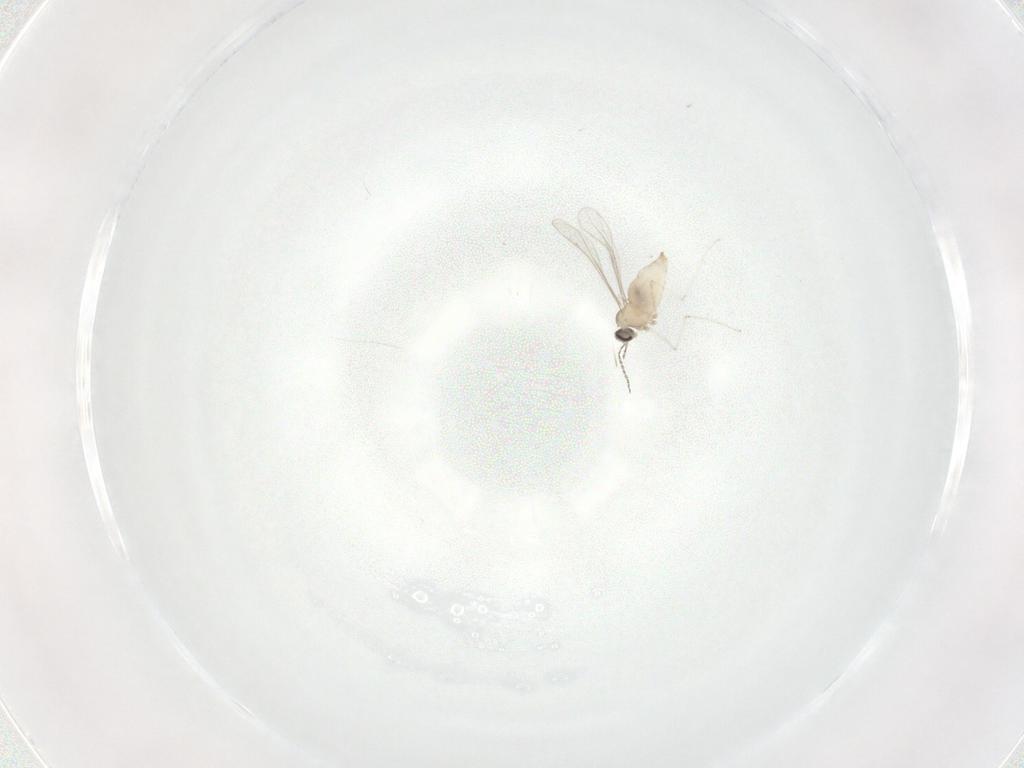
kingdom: Animalia
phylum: Arthropoda
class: Insecta
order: Diptera
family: Cecidomyiidae
